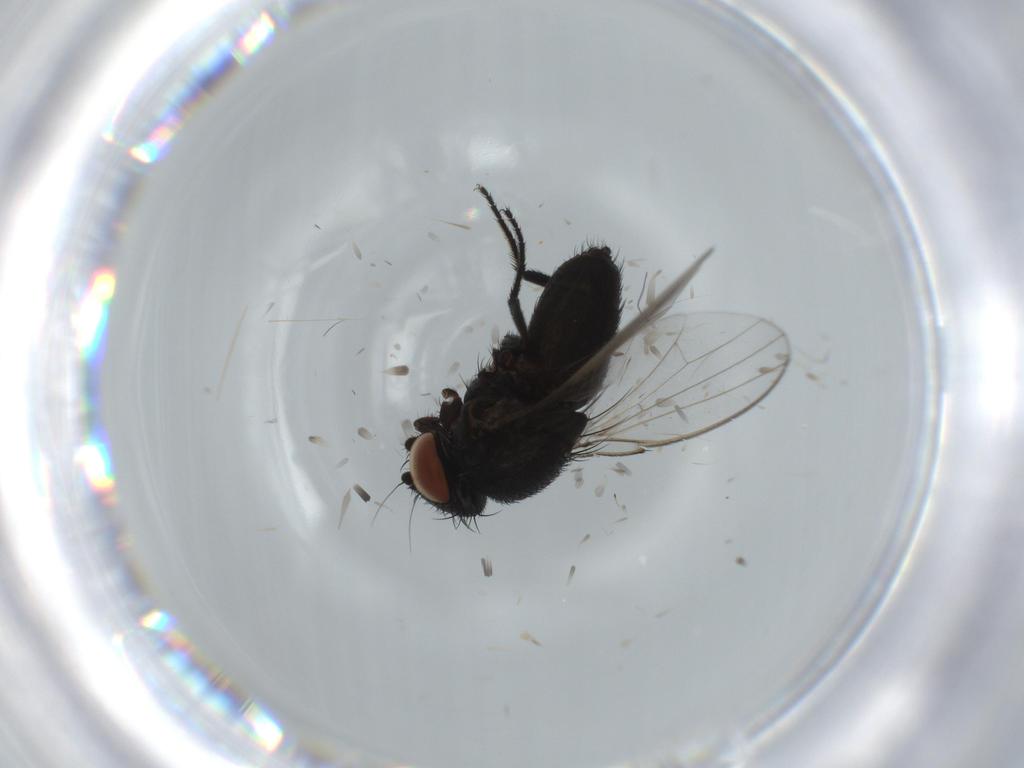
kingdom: Animalia
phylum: Arthropoda
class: Insecta
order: Diptera
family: Milichiidae
